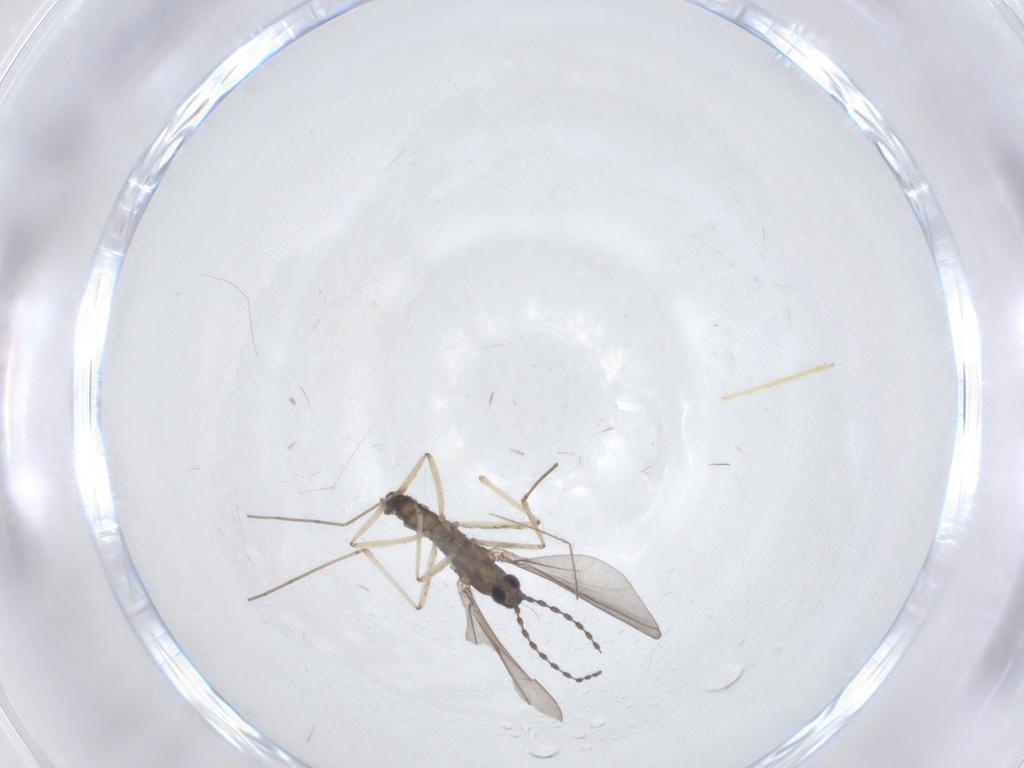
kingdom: Animalia
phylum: Arthropoda
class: Insecta
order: Diptera
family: Cecidomyiidae
